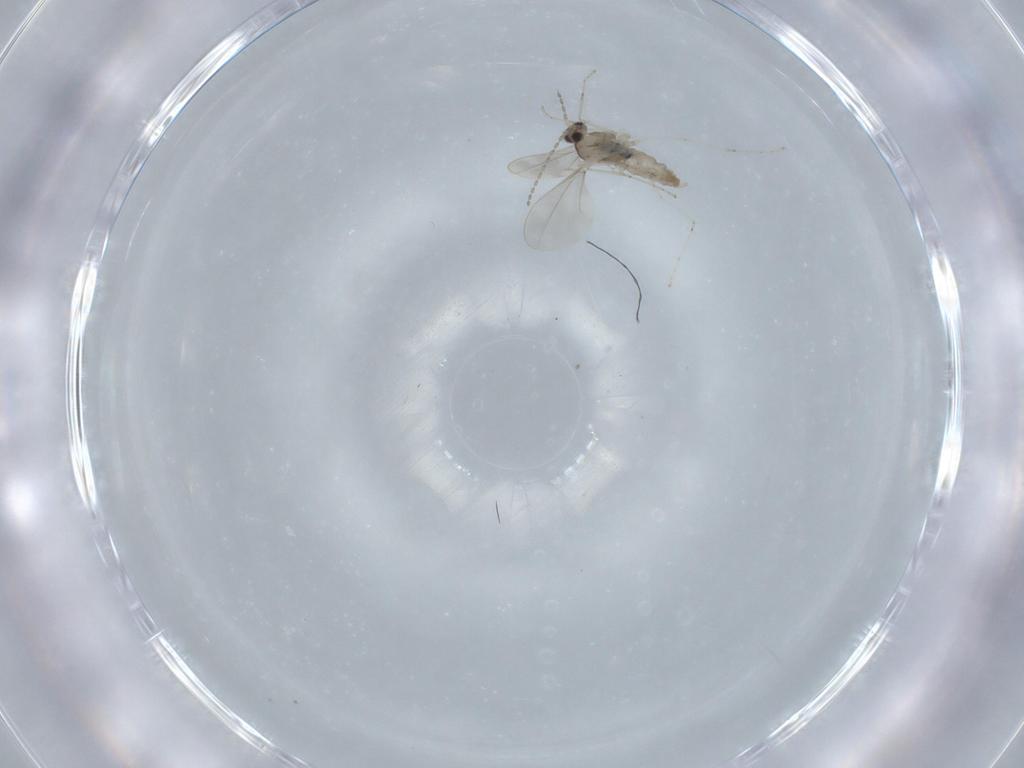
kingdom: Animalia
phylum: Arthropoda
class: Insecta
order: Diptera
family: Cecidomyiidae
